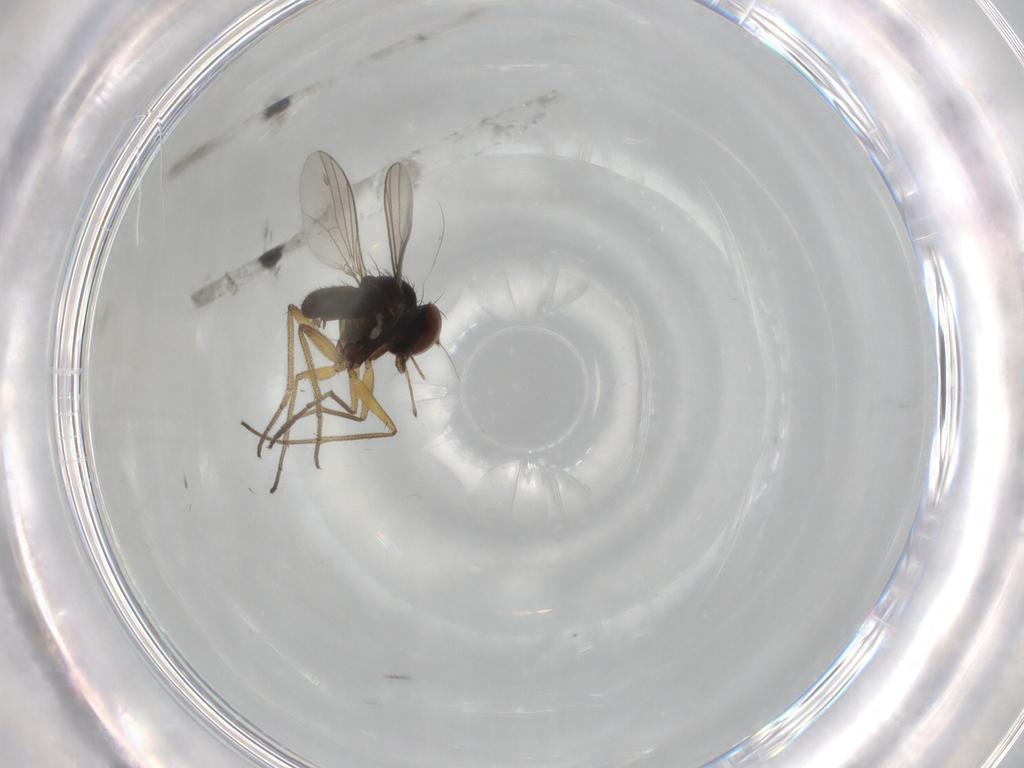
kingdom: Animalia
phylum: Arthropoda
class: Insecta
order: Diptera
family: Dolichopodidae
